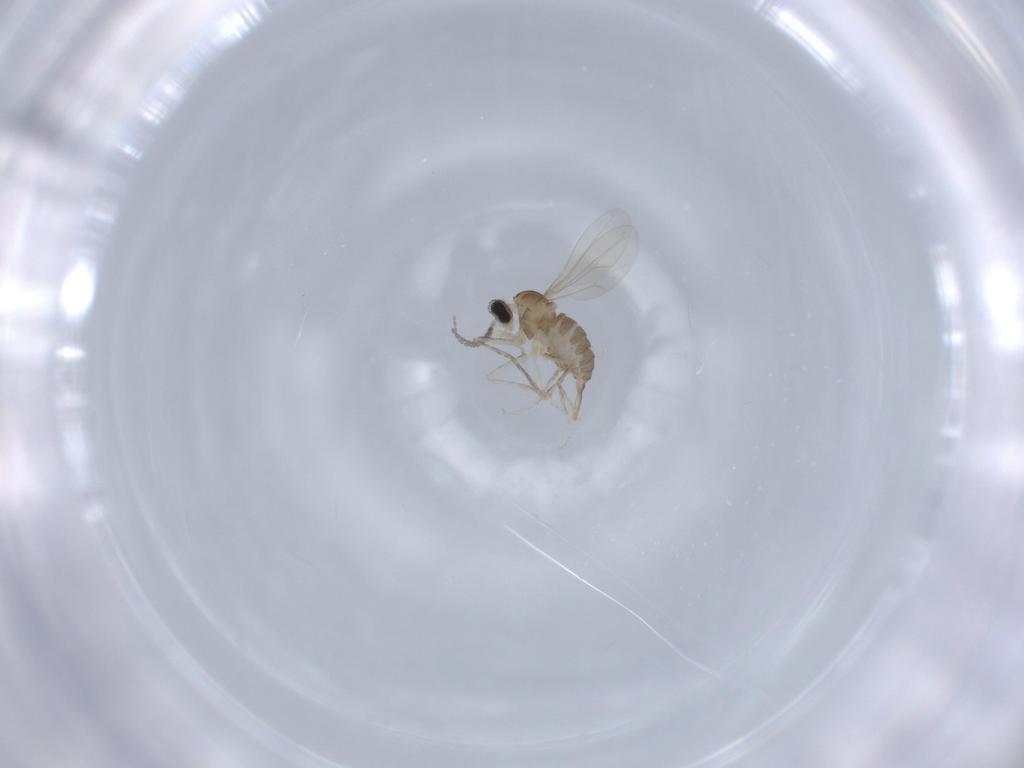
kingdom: Animalia
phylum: Arthropoda
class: Insecta
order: Diptera
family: Cecidomyiidae
